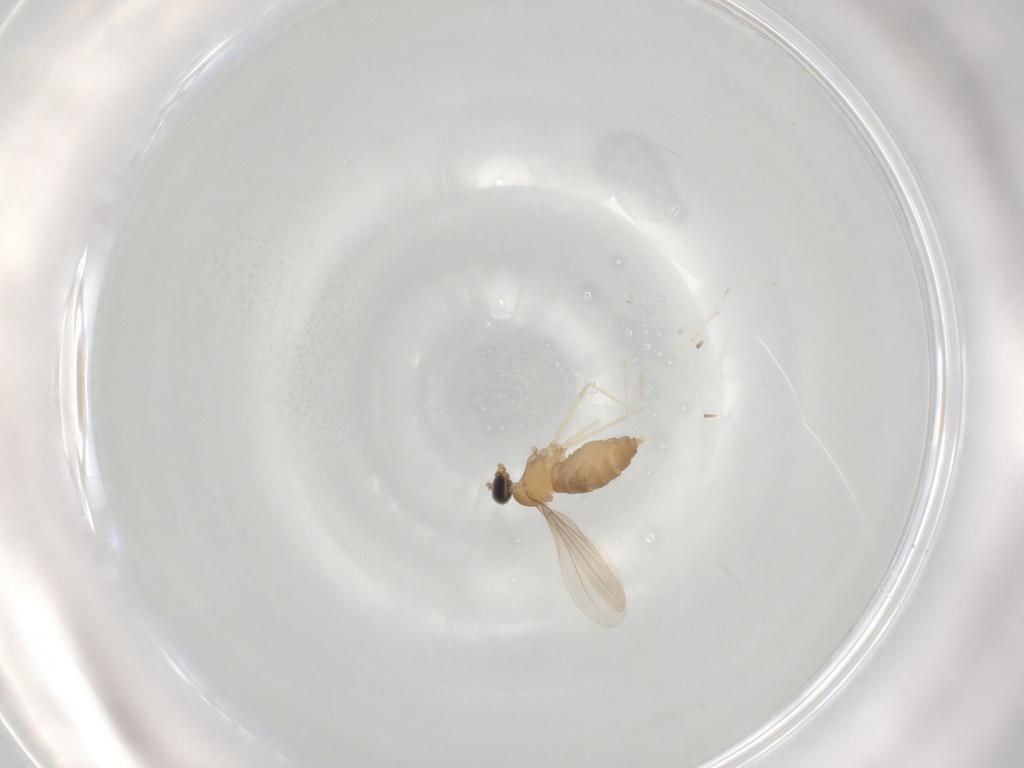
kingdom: Animalia
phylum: Arthropoda
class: Insecta
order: Diptera
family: Cecidomyiidae
